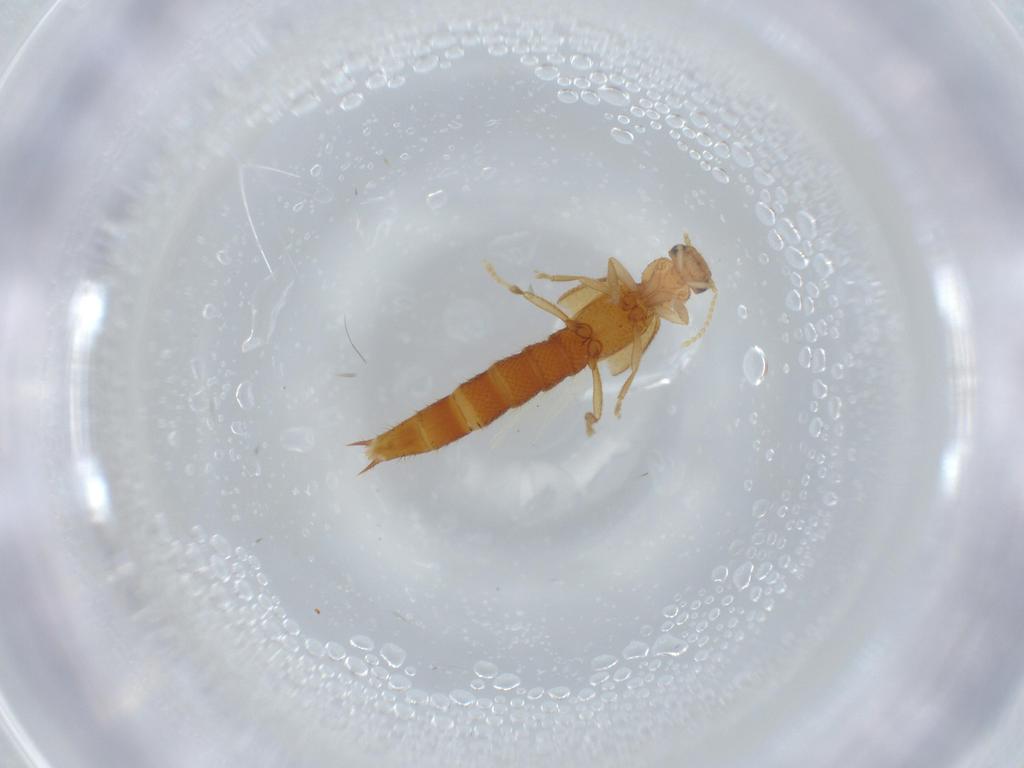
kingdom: Animalia
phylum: Arthropoda
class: Insecta
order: Coleoptera
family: Staphylinidae
